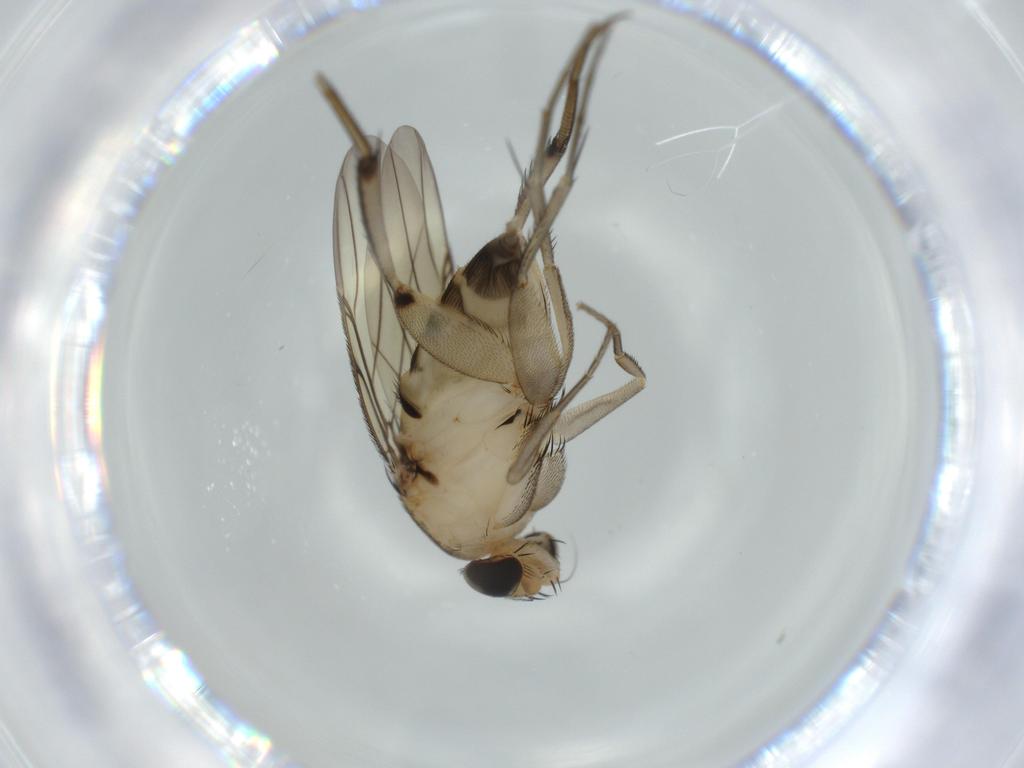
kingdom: Animalia
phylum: Arthropoda
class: Insecta
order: Diptera
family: Phoridae
